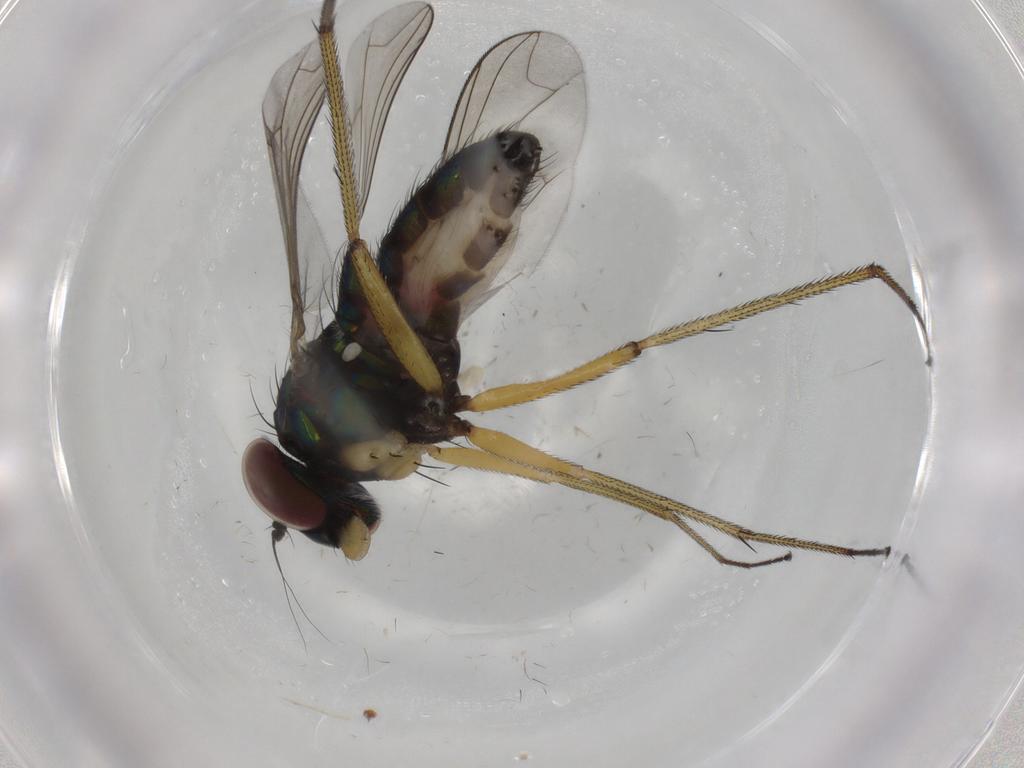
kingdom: Animalia
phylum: Arthropoda
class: Insecta
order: Diptera
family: Dolichopodidae
